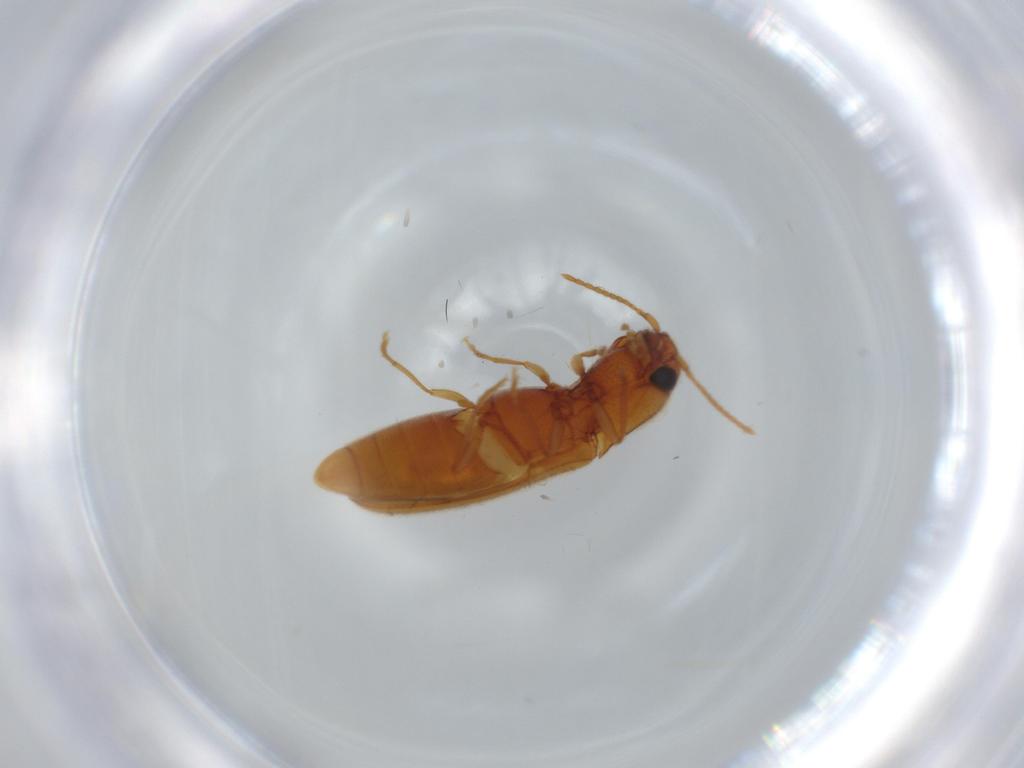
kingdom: Animalia
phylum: Arthropoda
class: Insecta
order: Coleoptera
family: Elateridae
